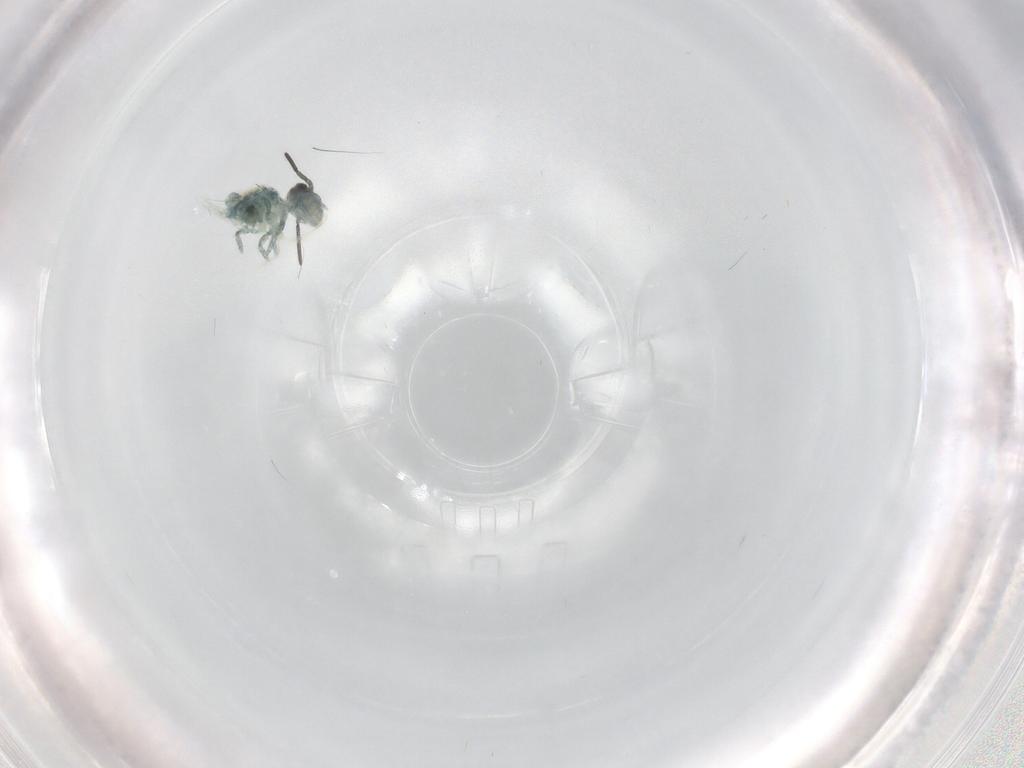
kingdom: Animalia
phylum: Arthropoda
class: Collembola
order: Symphypleona
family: Sminthuridae
